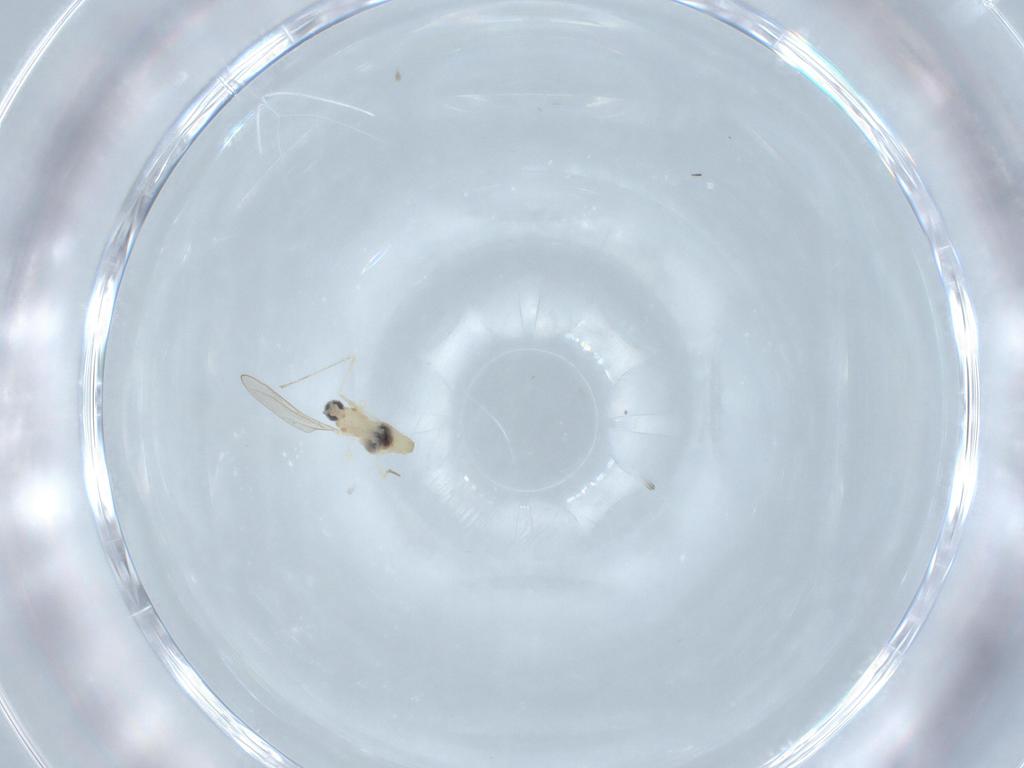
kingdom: Animalia
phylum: Arthropoda
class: Insecta
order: Diptera
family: Cecidomyiidae
